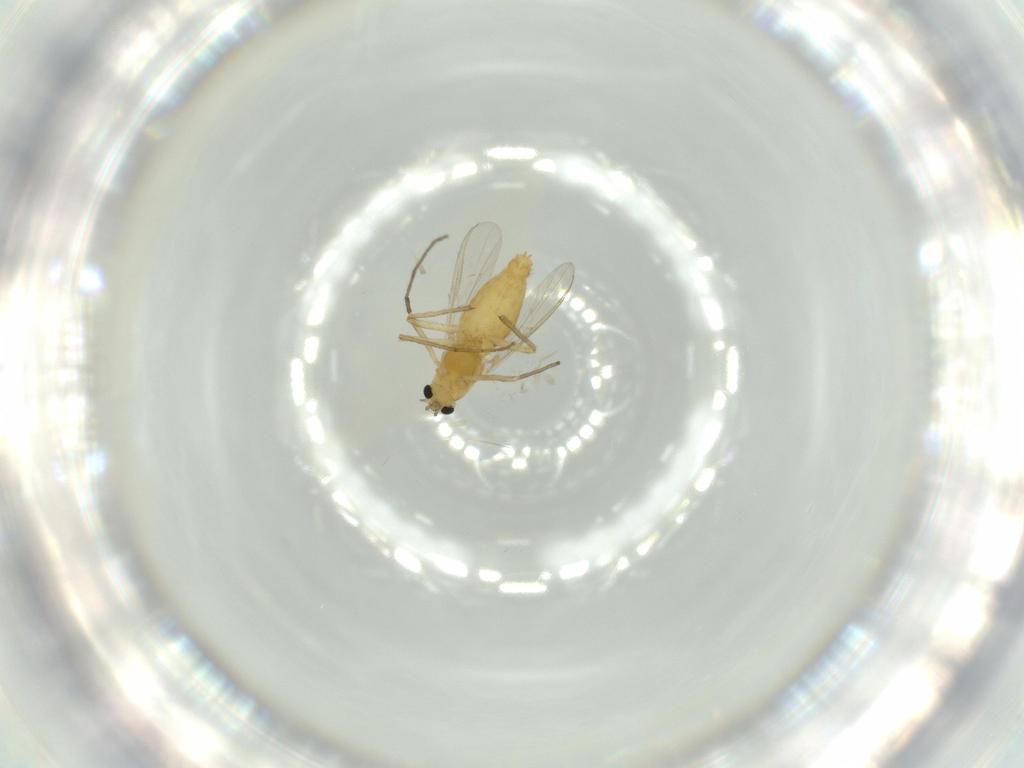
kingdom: Animalia
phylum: Arthropoda
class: Insecta
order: Diptera
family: Chironomidae
